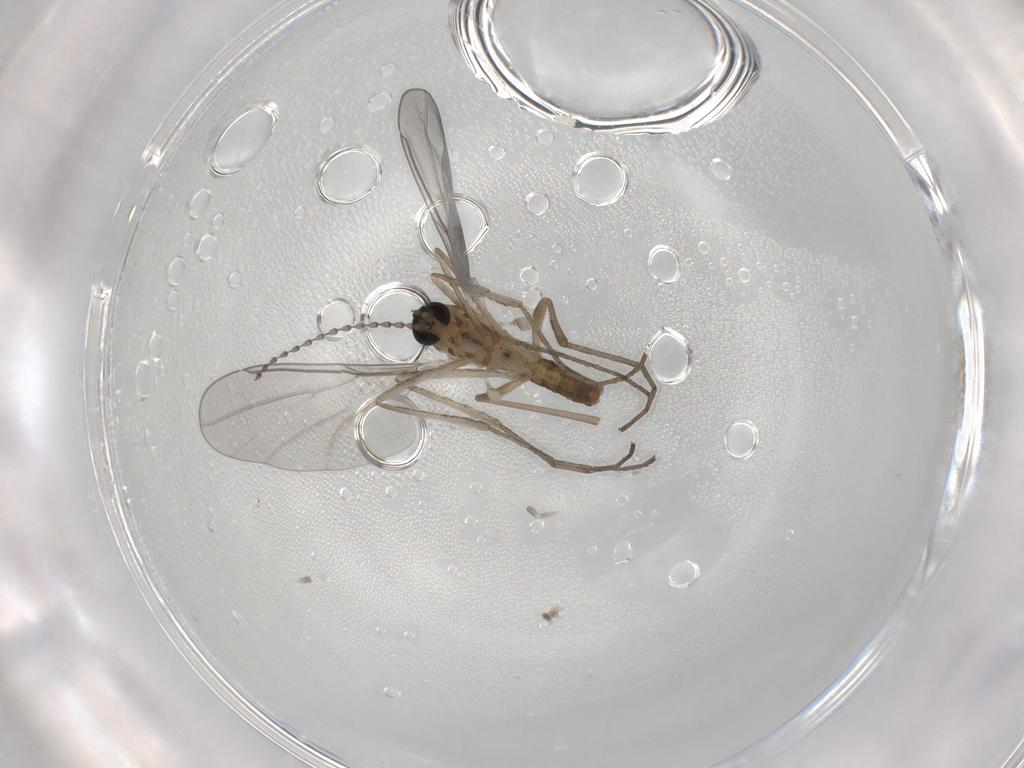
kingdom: Animalia
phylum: Arthropoda
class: Insecta
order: Diptera
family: Cecidomyiidae
